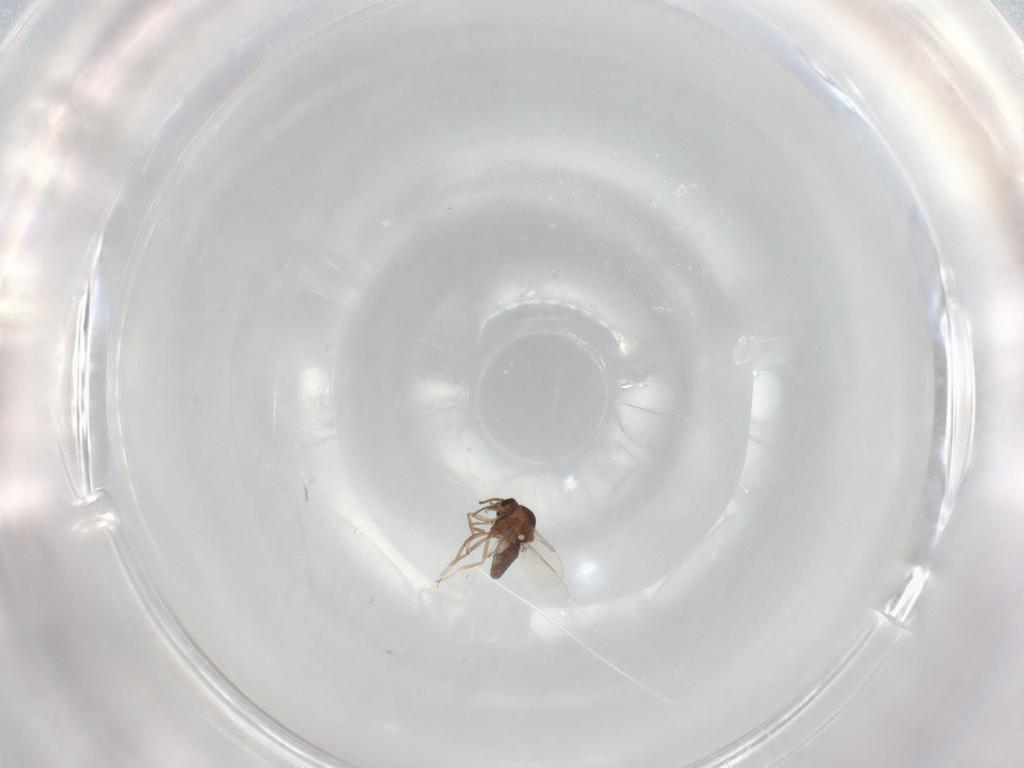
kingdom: Animalia
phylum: Arthropoda
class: Insecta
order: Diptera
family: Ceratopogonidae
